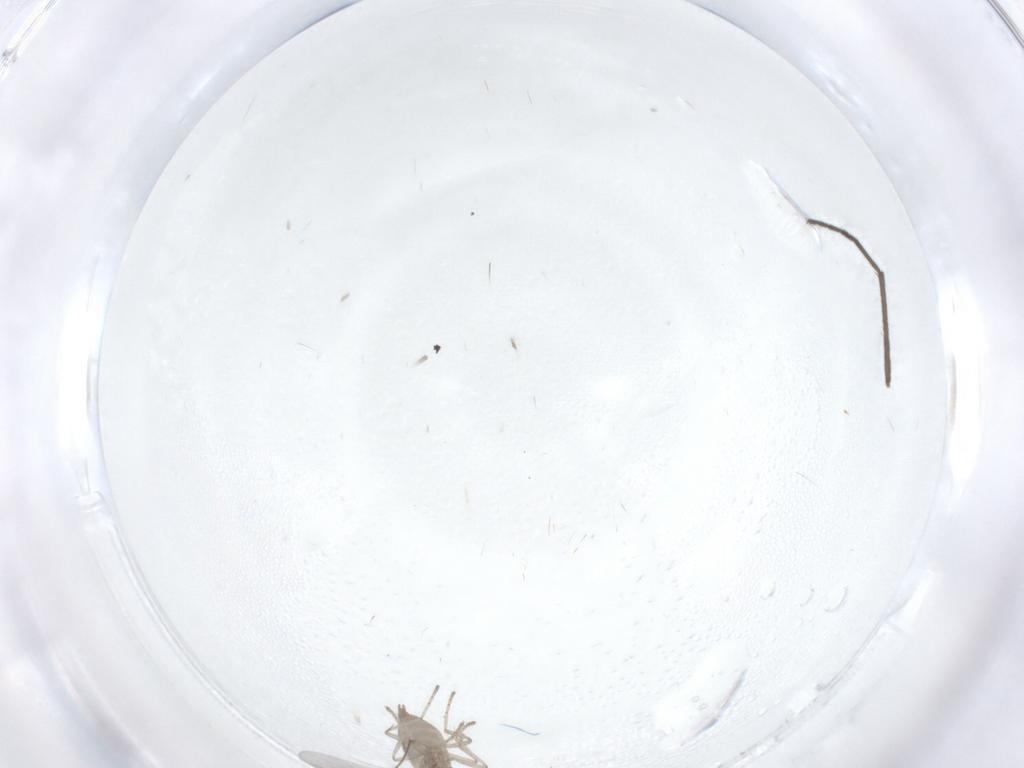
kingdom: Animalia
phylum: Arthropoda
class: Insecta
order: Diptera
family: Cecidomyiidae
